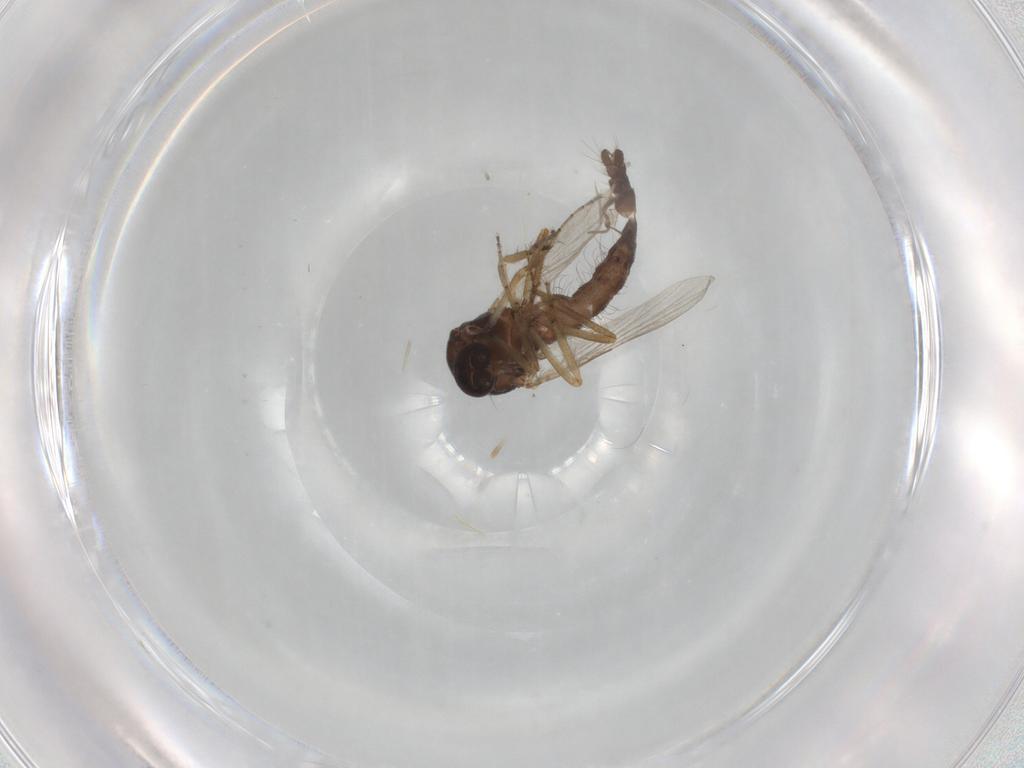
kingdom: Animalia
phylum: Arthropoda
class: Insecta
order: Diptera
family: Ceratopogonidae
